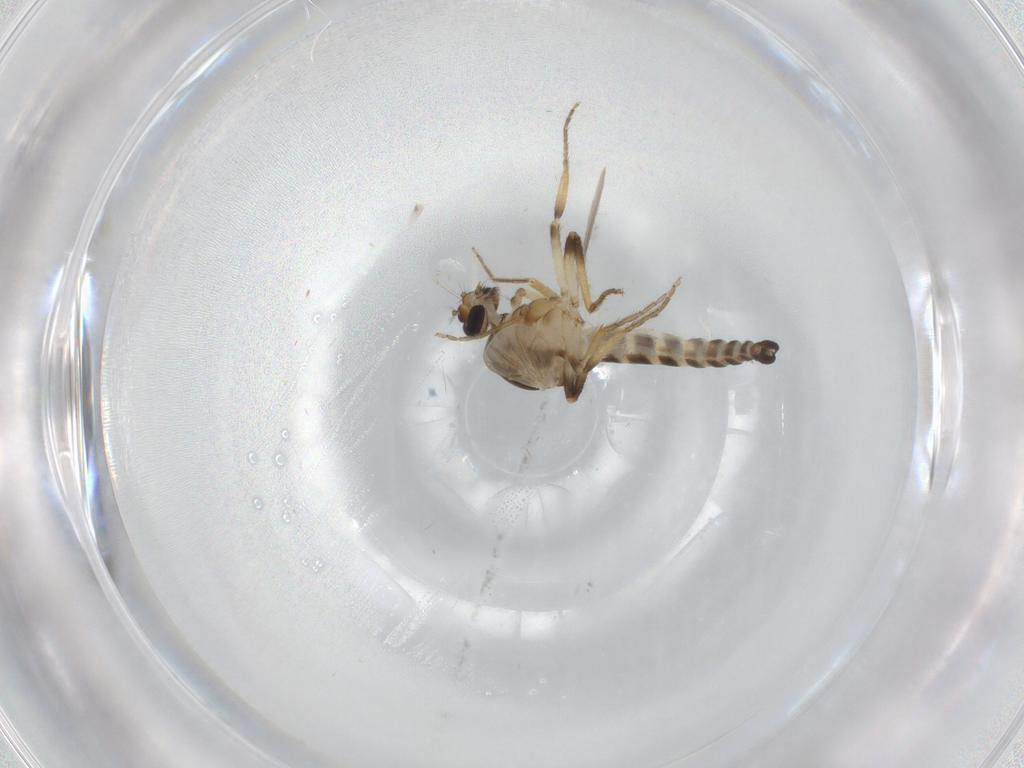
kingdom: Animalia
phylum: Arthropoda
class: Insecta
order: Diptera
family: Ceratopogonidae
